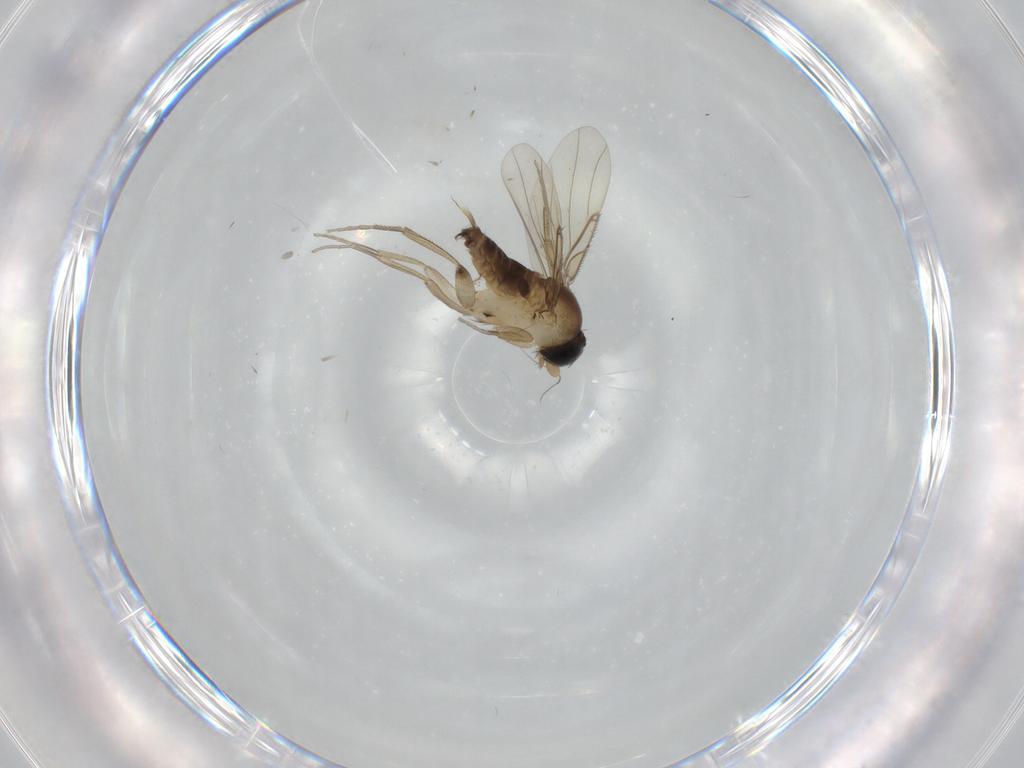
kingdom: Animalia
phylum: Arthropoda
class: Insecta
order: Diptera
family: Phoridae
